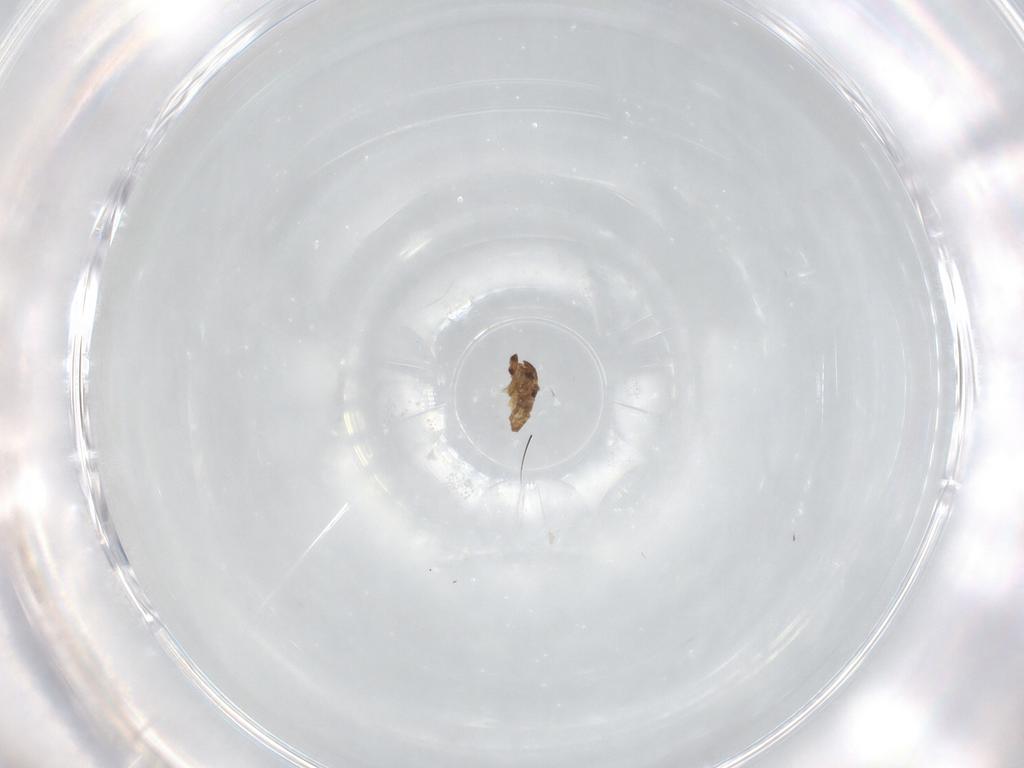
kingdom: Animalia
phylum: Arthropoda
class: Insecta
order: Diptera
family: Cecidomyiidae
